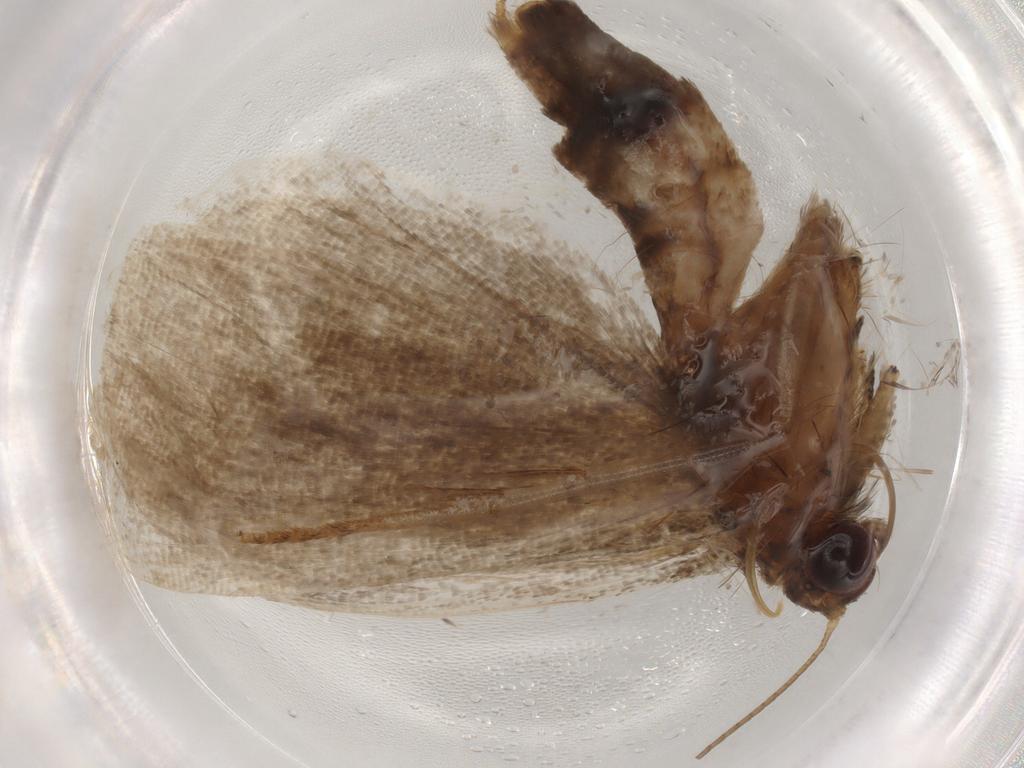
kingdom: Animalia
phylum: Arthropoda
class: Insecta
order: Lepidoptera
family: Erebidae
